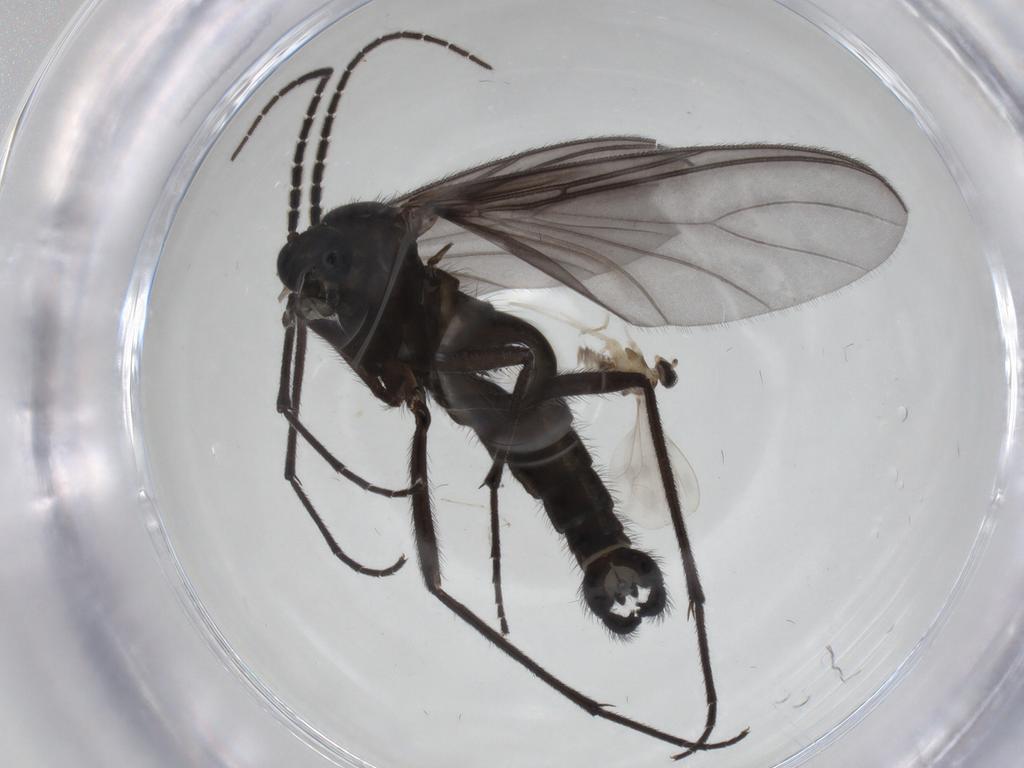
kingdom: Animalia
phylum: Arthropoda
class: Insecta
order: Diptera
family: Cecidomyiidae
